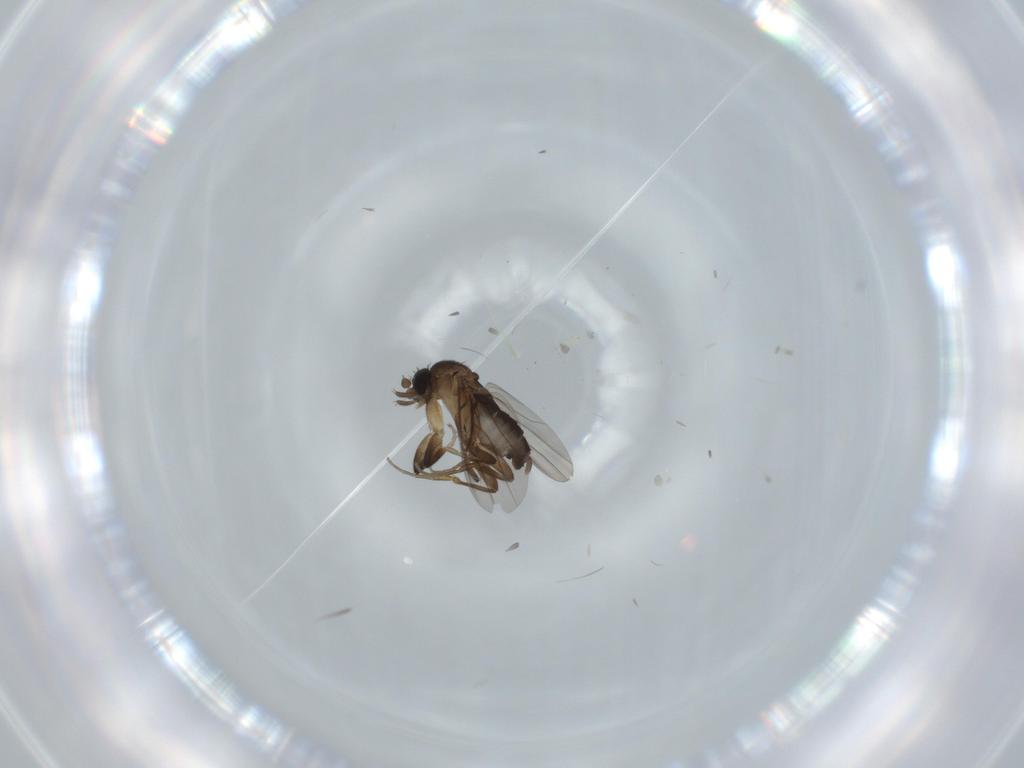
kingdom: Animalia
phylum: Arthropoda
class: Insecta
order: Diptera
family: Phoridae
